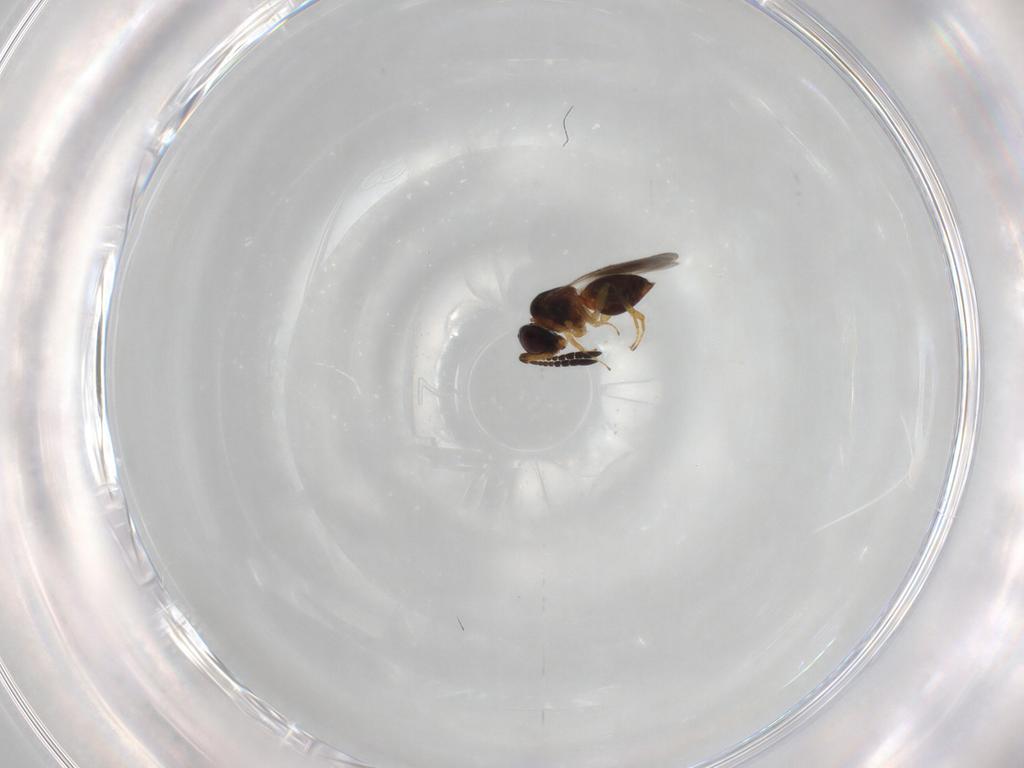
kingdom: Animalia
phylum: Arthropoda
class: Insecta
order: Hymenoptera
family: Ceraphronidae
